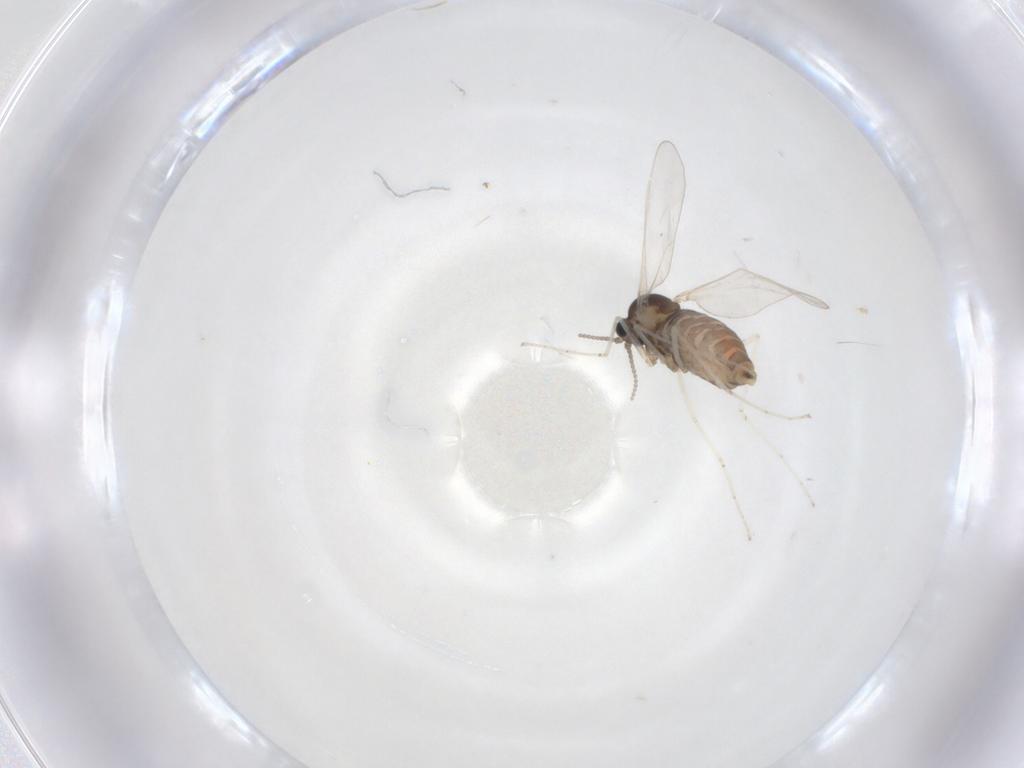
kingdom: Animalia
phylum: Arthropoda
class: Insecta
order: Diptera
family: Cecidomyiidae
